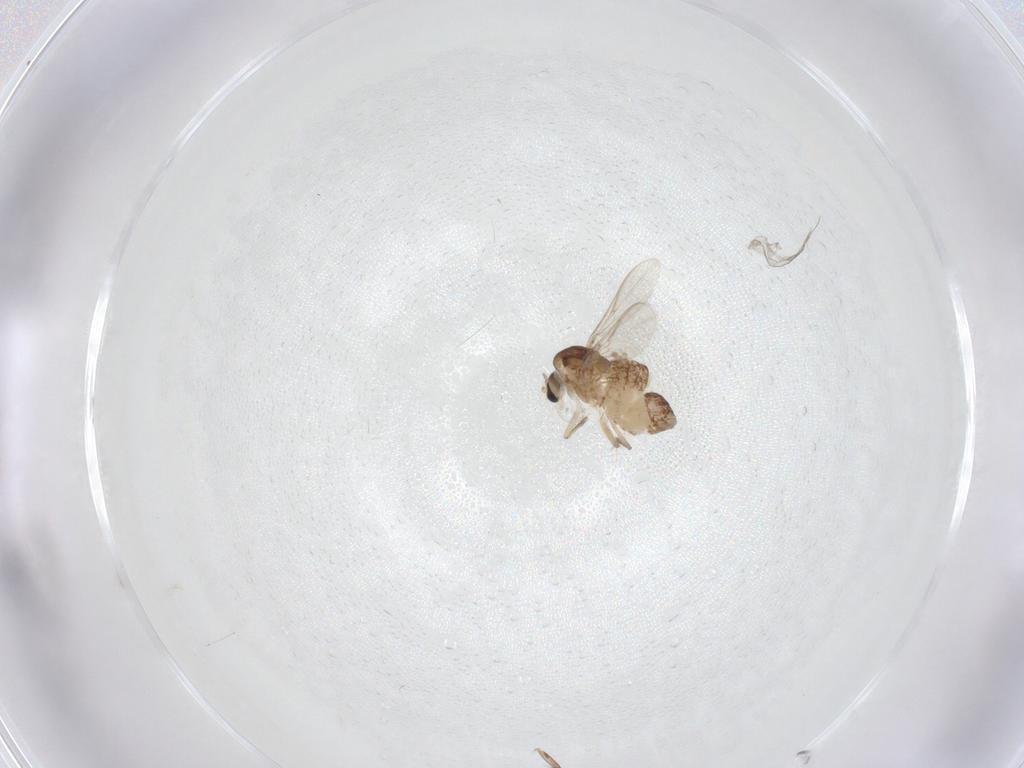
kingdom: Animalia
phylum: Arthropoda
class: Insecta
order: Diptera
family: Chironomidae
